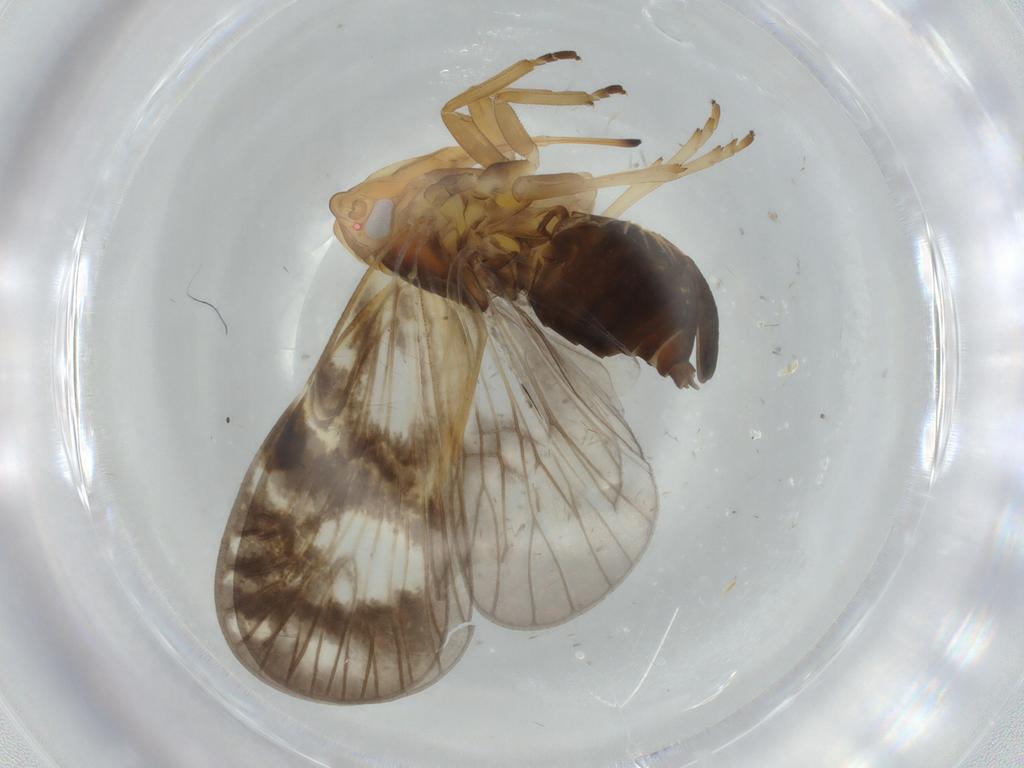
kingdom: Animalia
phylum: Arthropoda
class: Insecta
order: Hemiptera
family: Cixiidae
